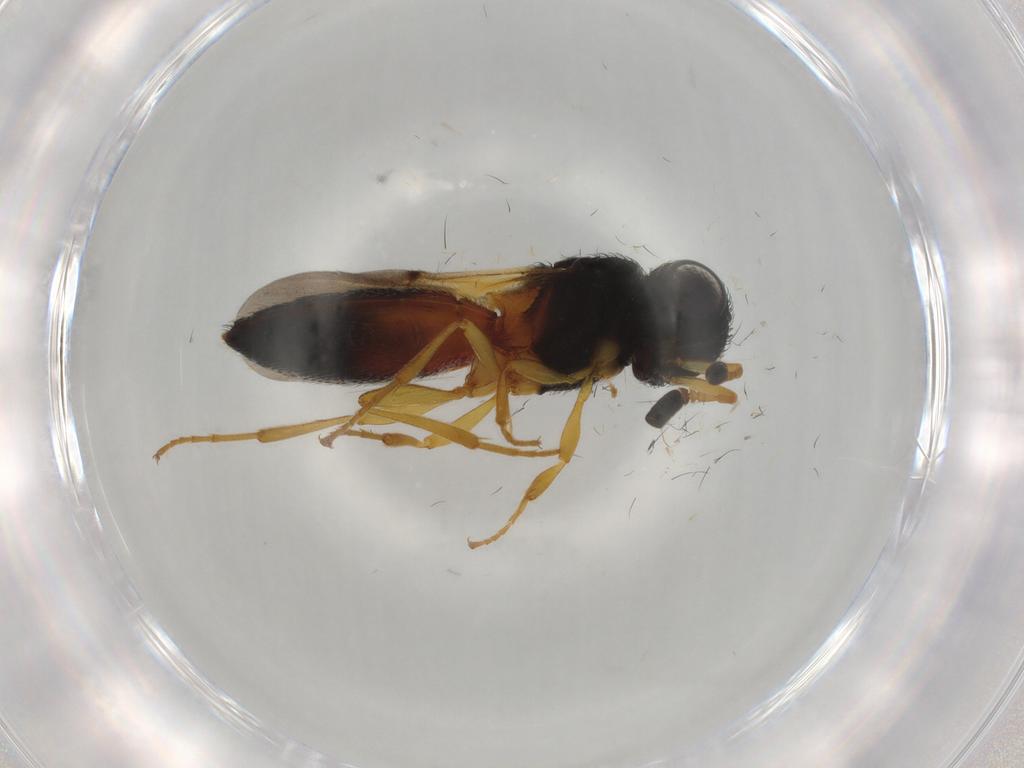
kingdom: Animalia
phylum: Arthropoda
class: Insecta
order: Hymenoptera
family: Scelionidae
